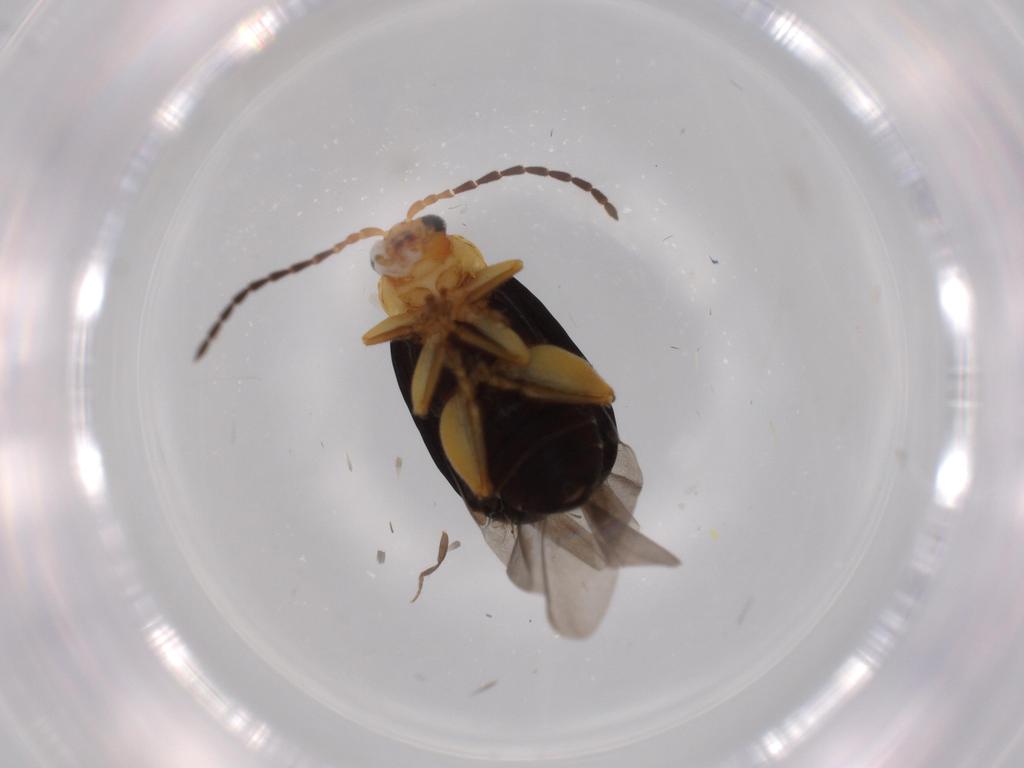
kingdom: Animalia
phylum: Arthropoda
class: Insecta
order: Coleoptera
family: Chrysomelidae
